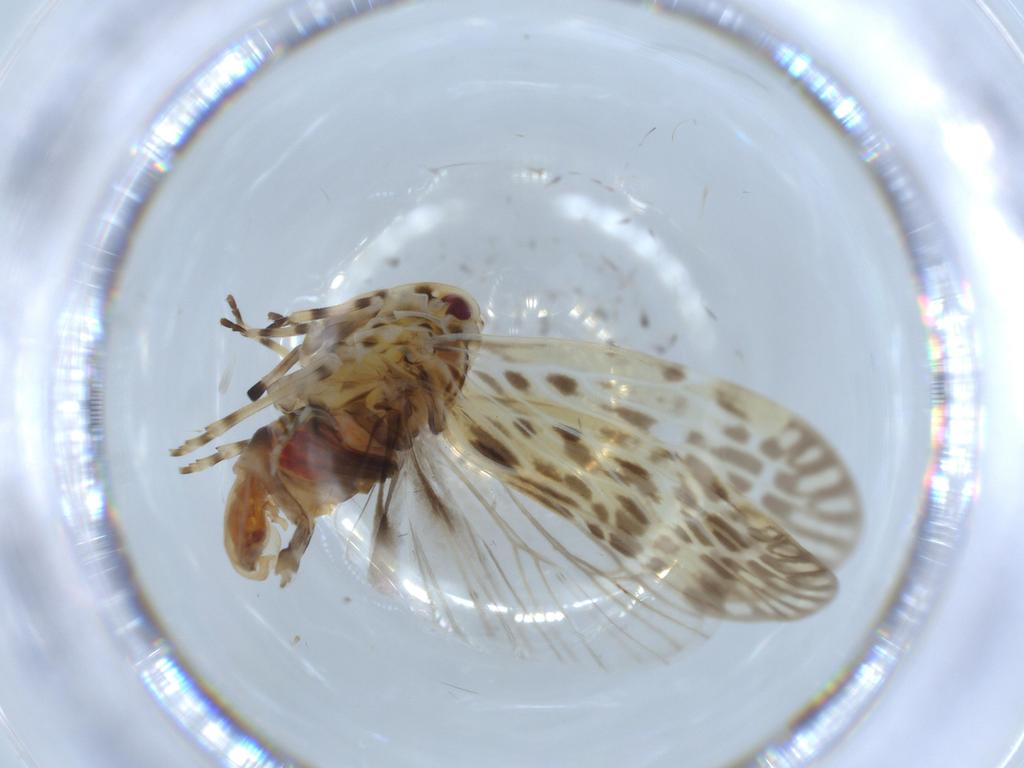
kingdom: Animalia
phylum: Arthropoda
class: Insecta
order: Hemiptera
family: Derbidae
